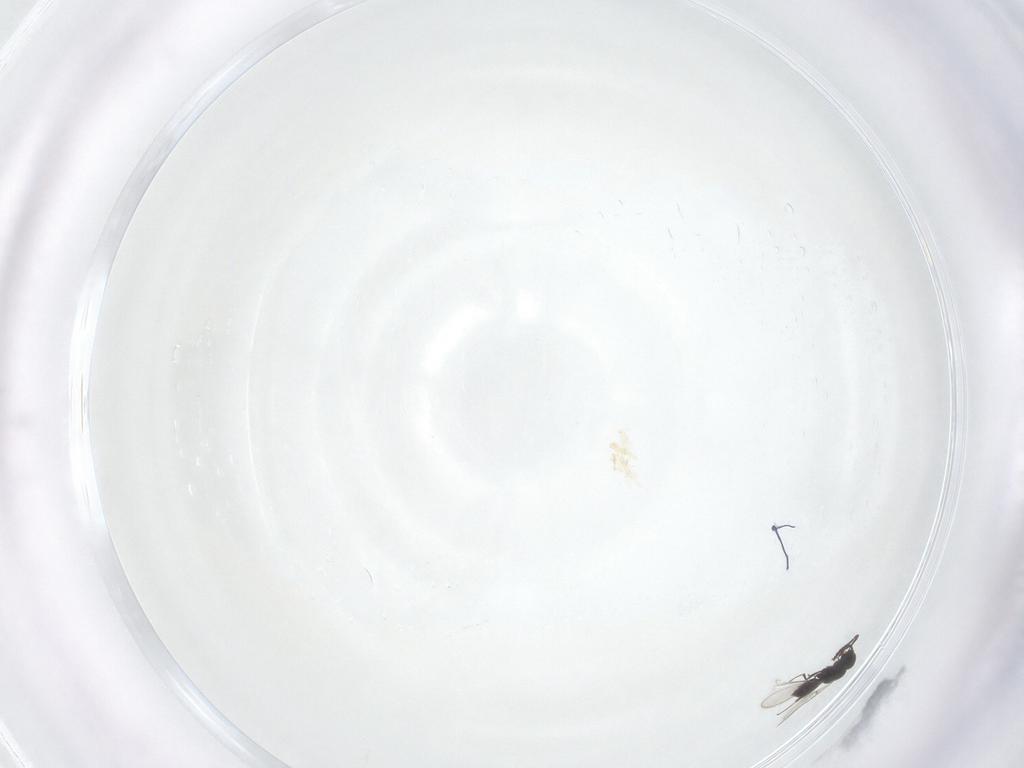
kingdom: Animalia
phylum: Arthropoda
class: Insecta
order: Hymenoptera
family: Scelionidae
